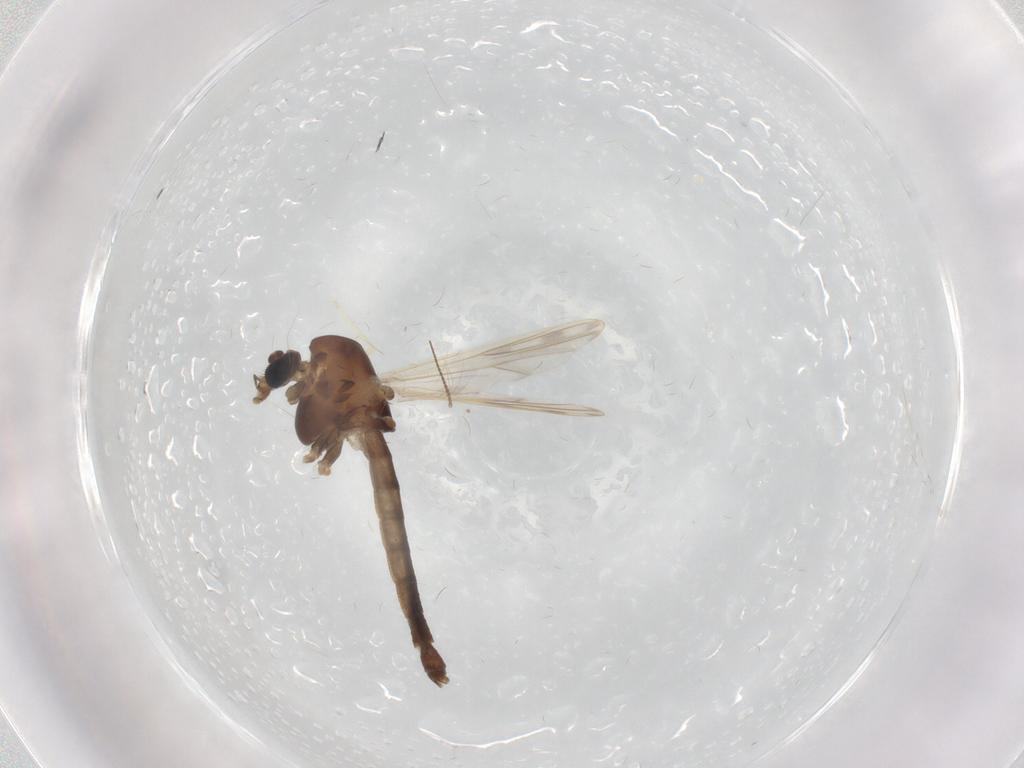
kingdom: Animalia
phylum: Arthropoda
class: Insecta
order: Diptera
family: Chironomidae
